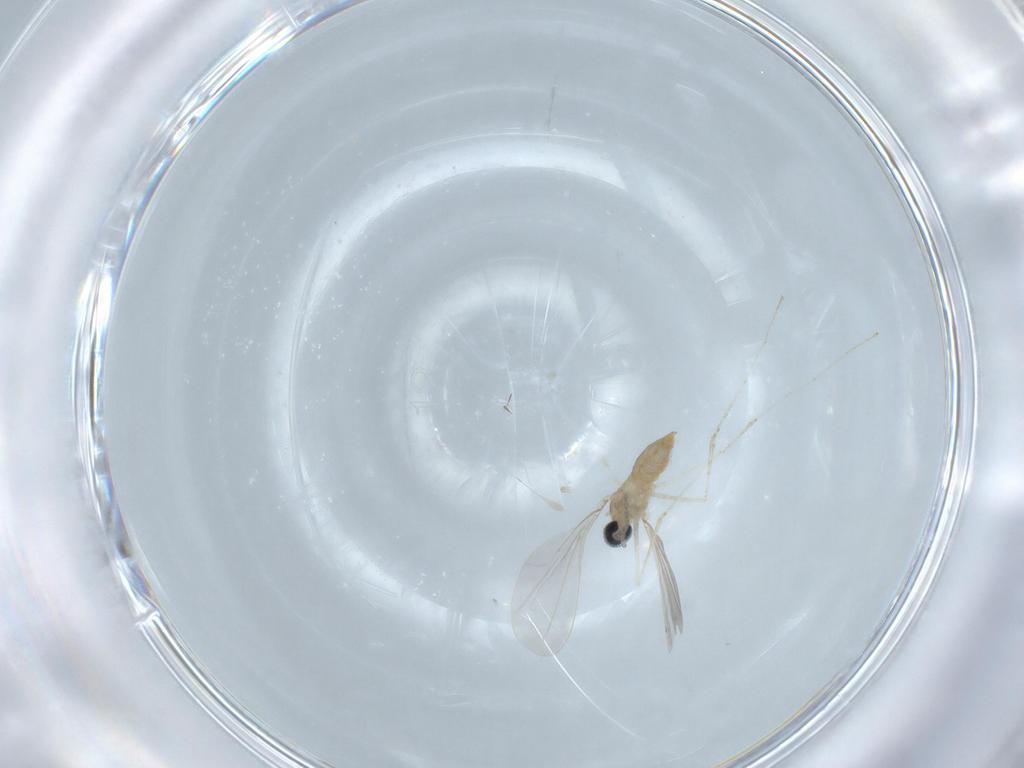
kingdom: Animalia
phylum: Arthropoda
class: Insecta
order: Diptera
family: Cecidomyiidae
